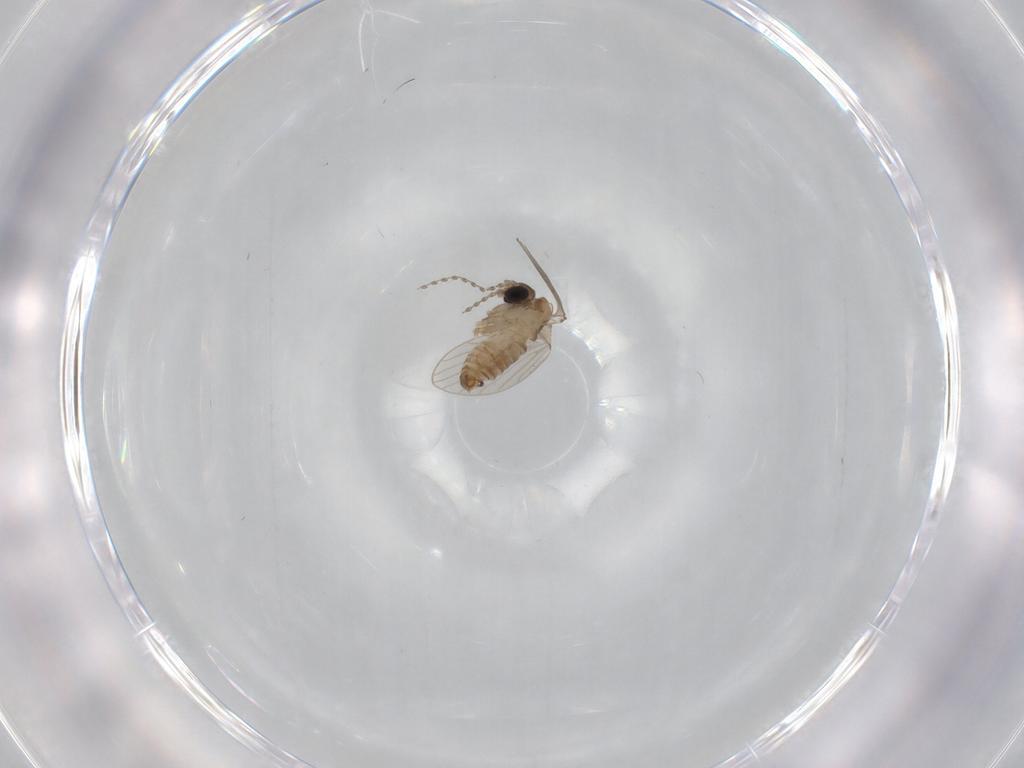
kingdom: Animalia
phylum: Arthropoda
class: Insecta
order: Diptera
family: Psychodidae
